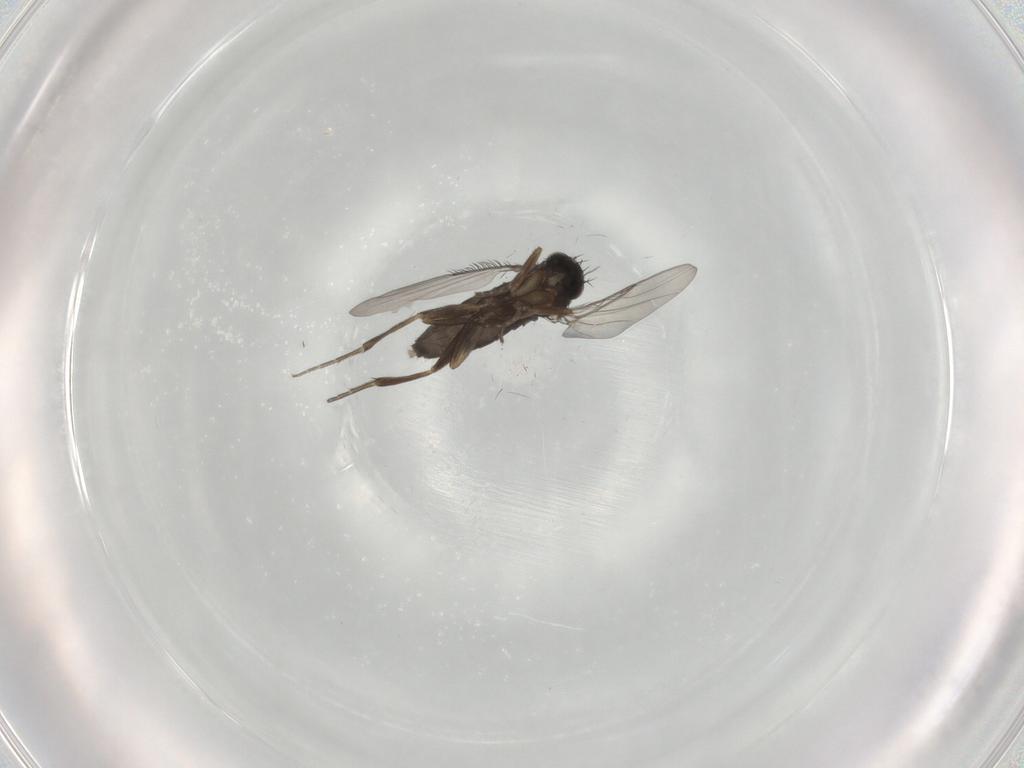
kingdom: Animalia
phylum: Arthropoda
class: Insecta
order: Diptera
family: Phoridae
